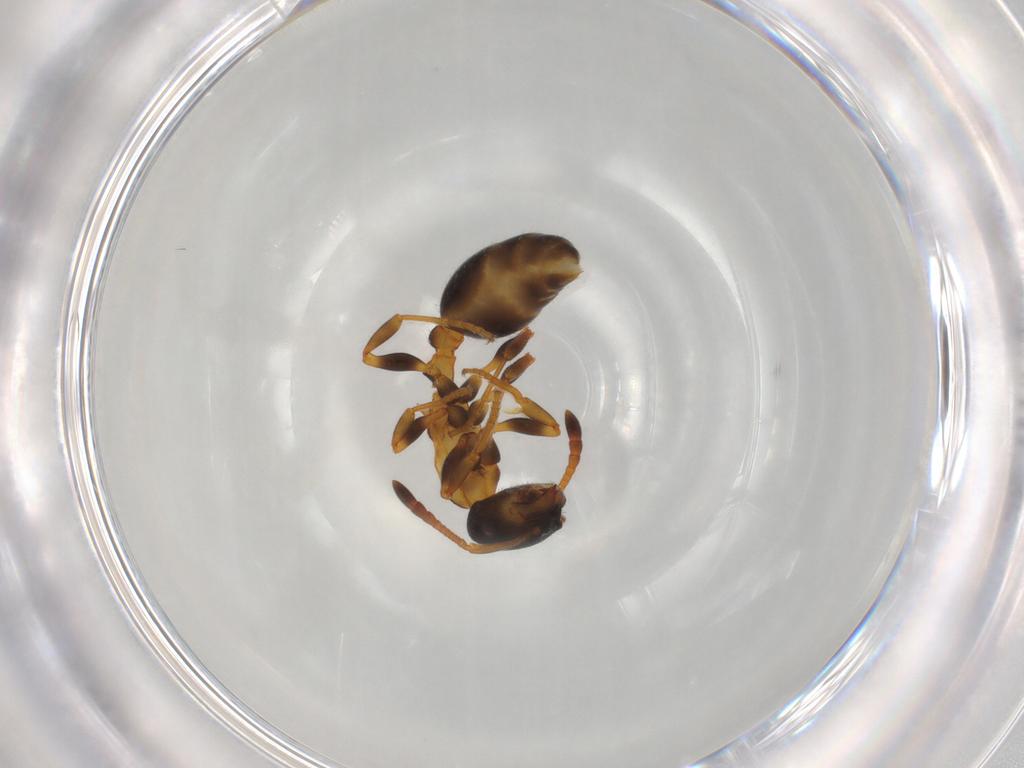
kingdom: Animalia
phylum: Arthropoda
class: Insecta
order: Hymenoptera
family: Formicidae
